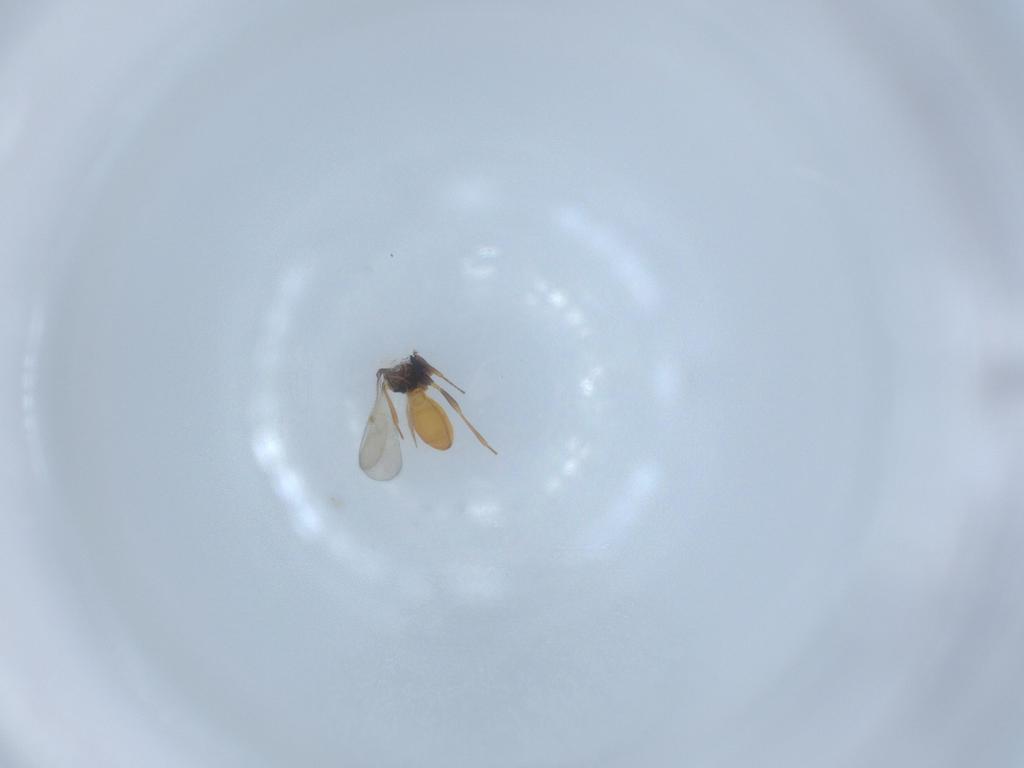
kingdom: Animalia
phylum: Arthropoda
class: Insecta
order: Hymenoptera
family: Scelionidae
